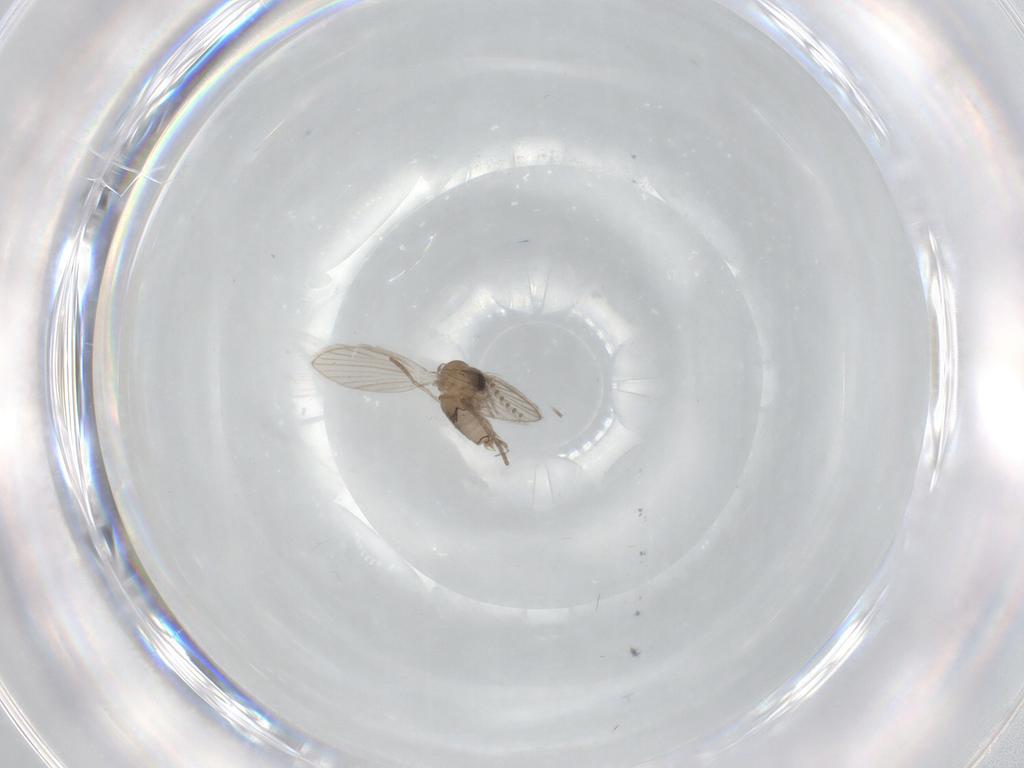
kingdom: Animalia
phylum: Arthropoda
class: Insecta
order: Diptera
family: Psychodidae
